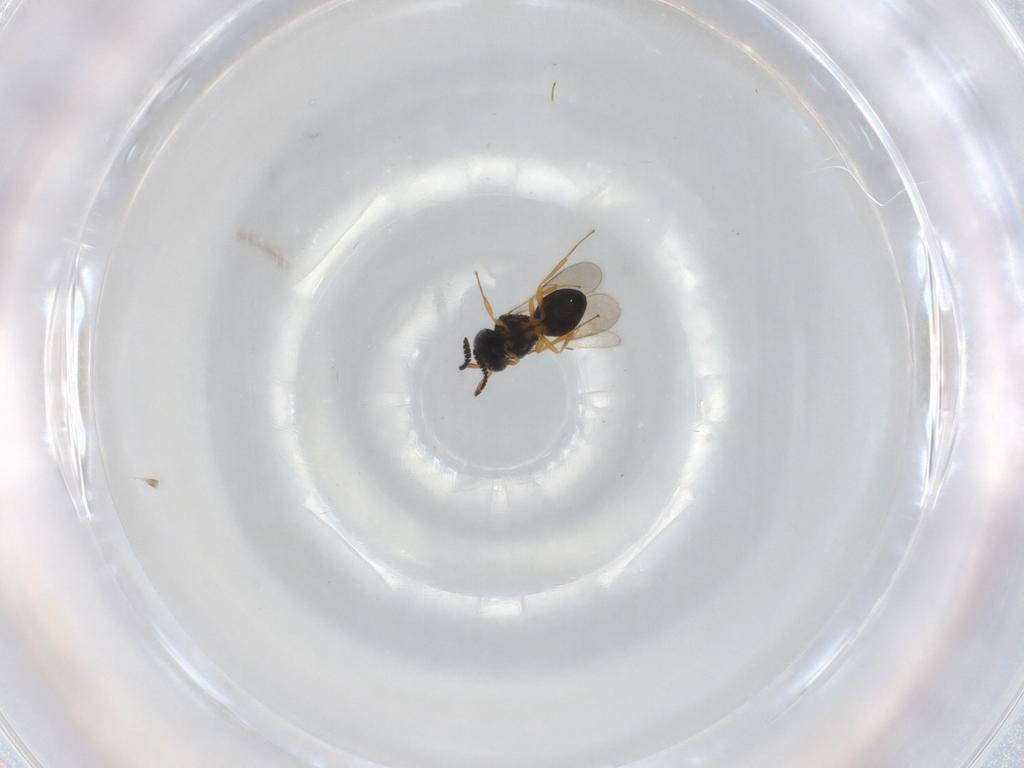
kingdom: Animalia
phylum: Arthropoda
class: Insecta
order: Hymenoptera
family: Scelionidae
